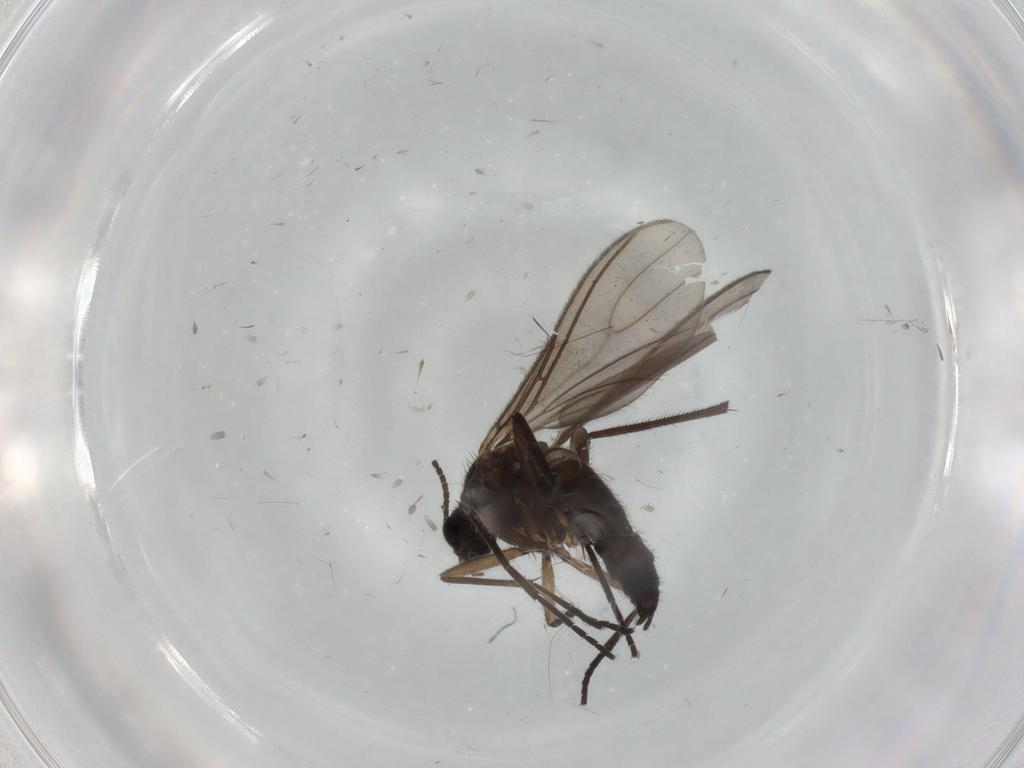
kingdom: Animalia
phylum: Arthropoda
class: Insecta
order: Diptera
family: Sciaridae
